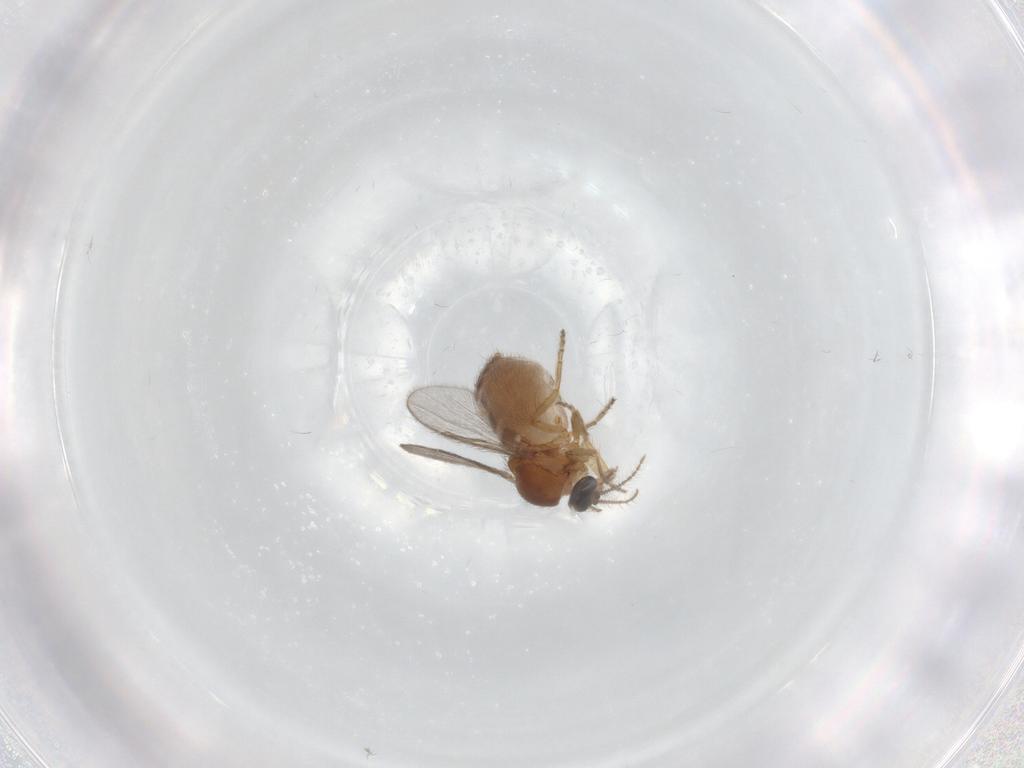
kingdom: Animalia
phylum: Arthropoda
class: Insecta
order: Diptera
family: Ceratopogonidae
